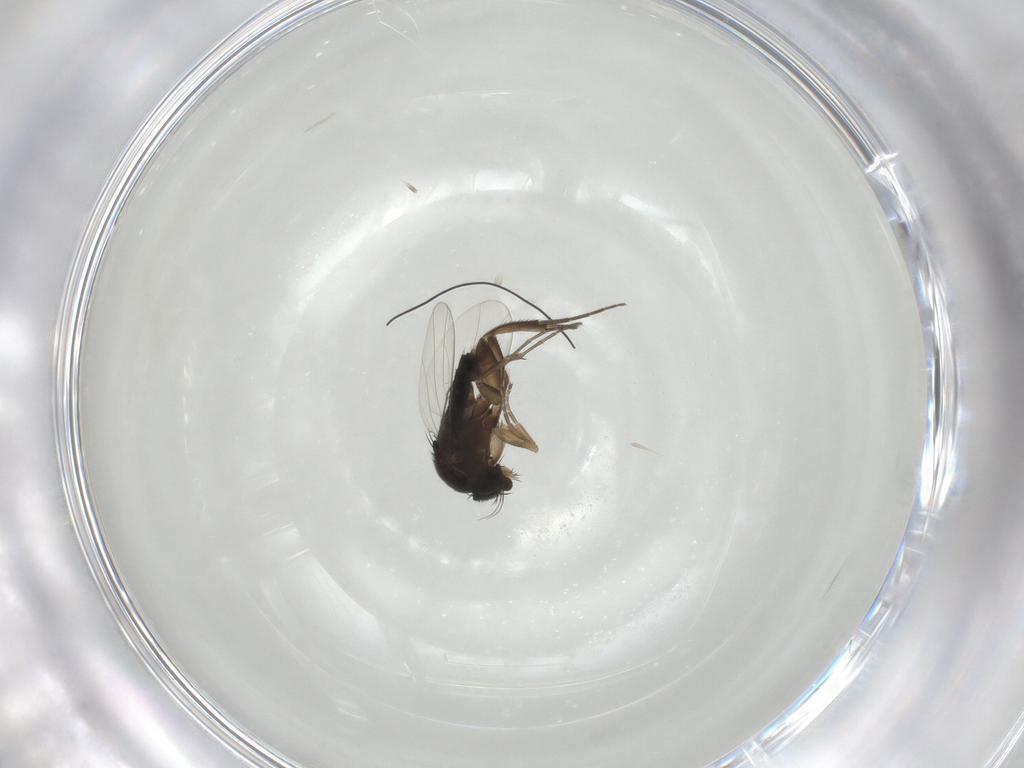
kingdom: Animalia
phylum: Arthropoda
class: Insecta
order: Diptera
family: Phoridae
